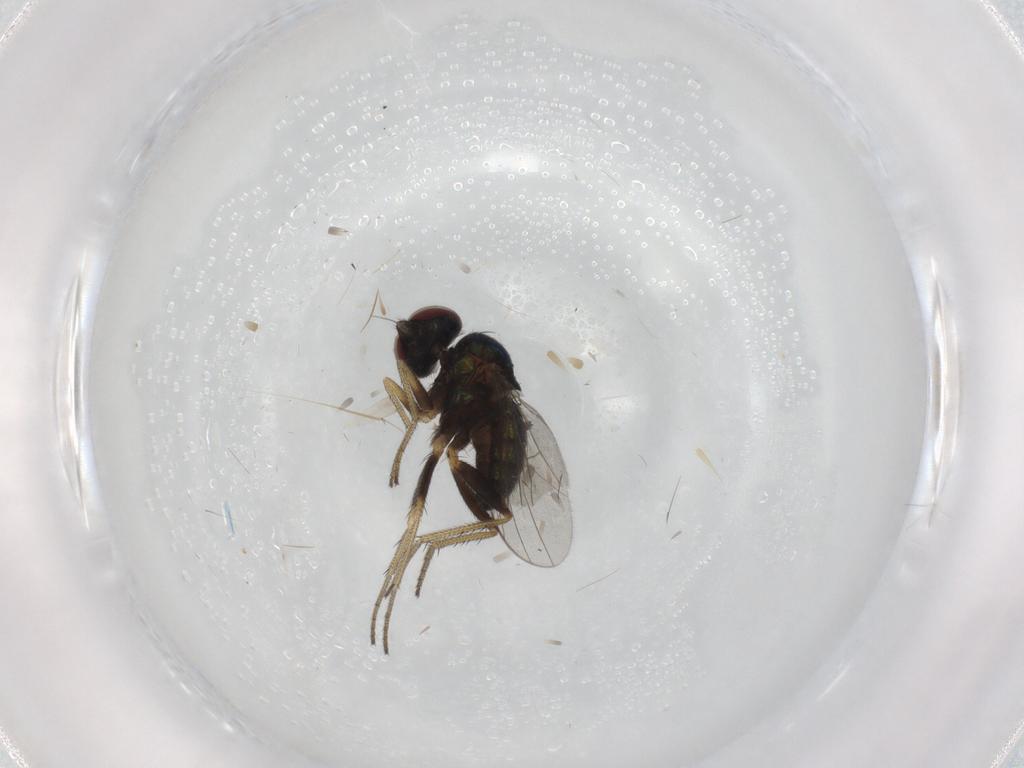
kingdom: Animalia
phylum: Arthropoda
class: Insecta
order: Diptera
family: Dolichopodidae
